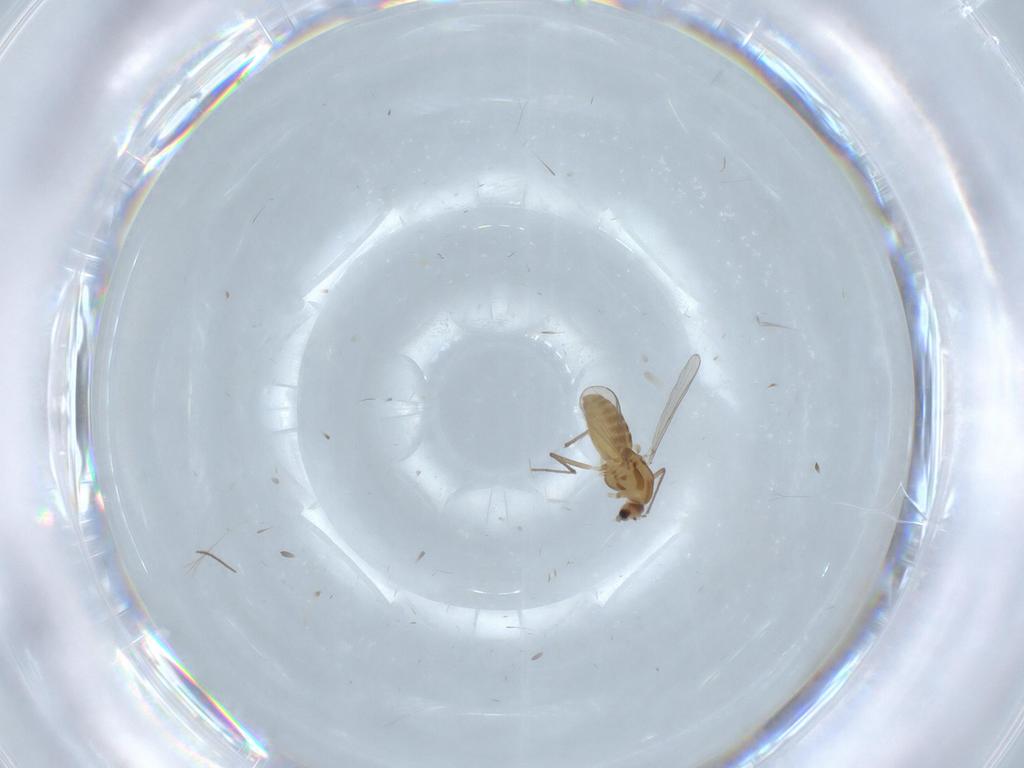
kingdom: Animalia
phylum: Arthropoda
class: Insecta
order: Diptera
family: Chironomidae
